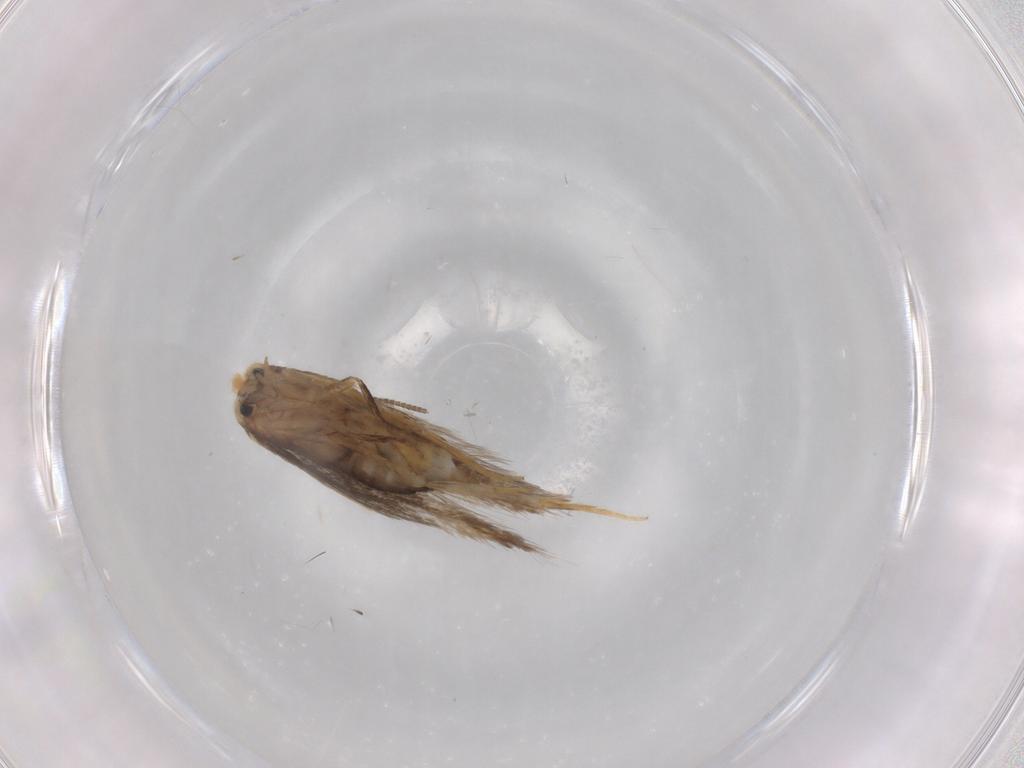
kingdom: Animalia
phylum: Arthropoda
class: Insecta
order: Lepidoptera
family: Nepticulidae
